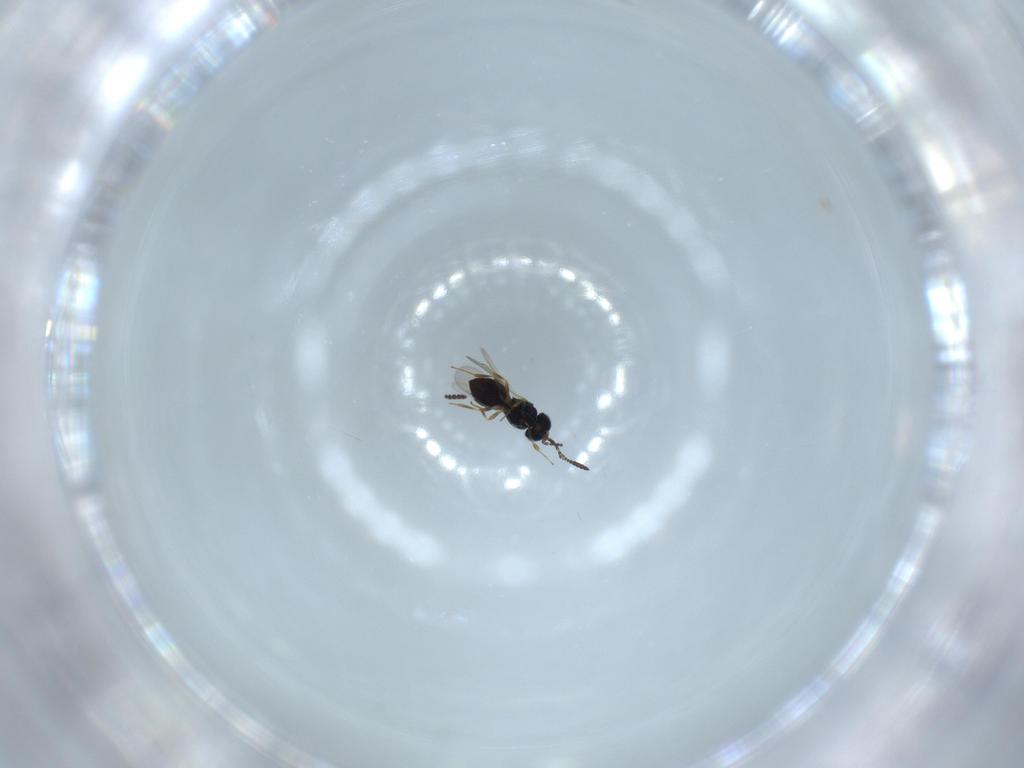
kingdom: Animalia
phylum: Arthropoda
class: Insecta
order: Hymenoptera
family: Scelionidae
